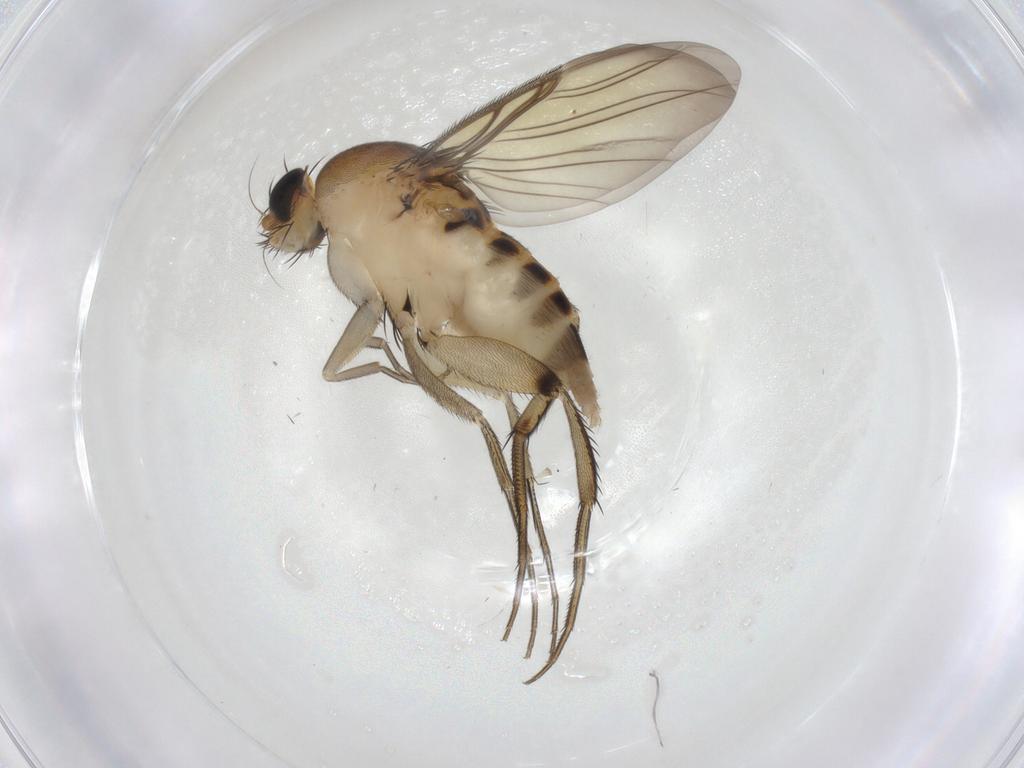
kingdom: Animalia
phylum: Arthropoda
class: Insecta
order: Diptera
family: Phoridae
